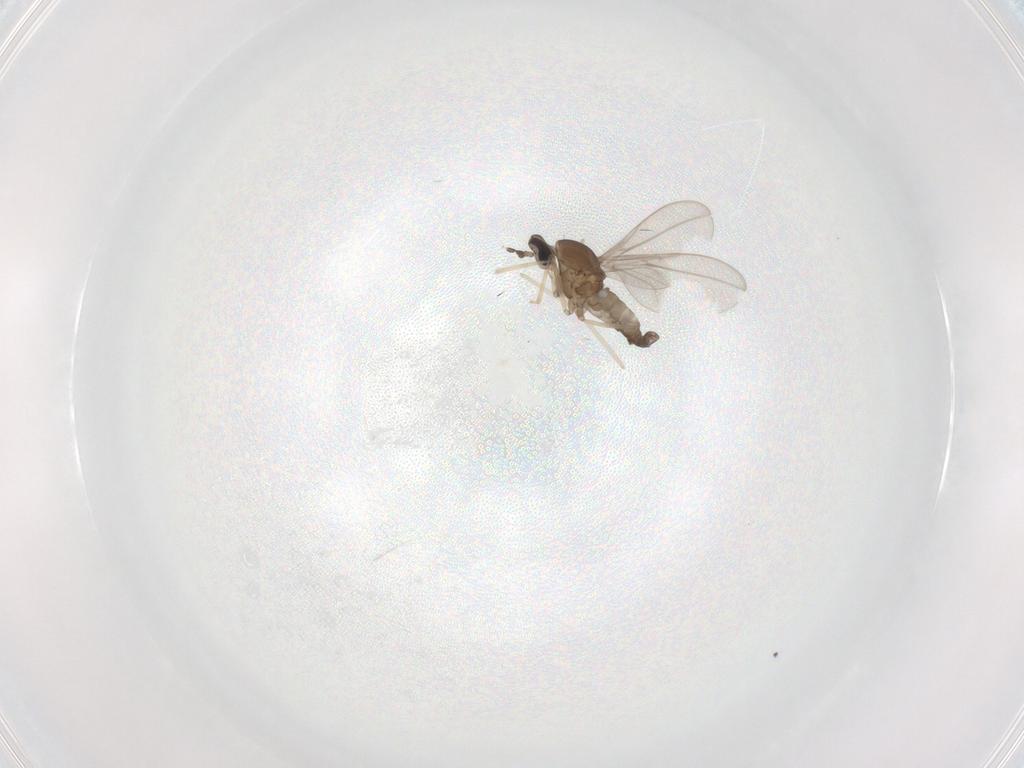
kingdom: Animalia
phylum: Arthropoda
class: Insecta
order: Diptera
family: Cecidomyiidae
